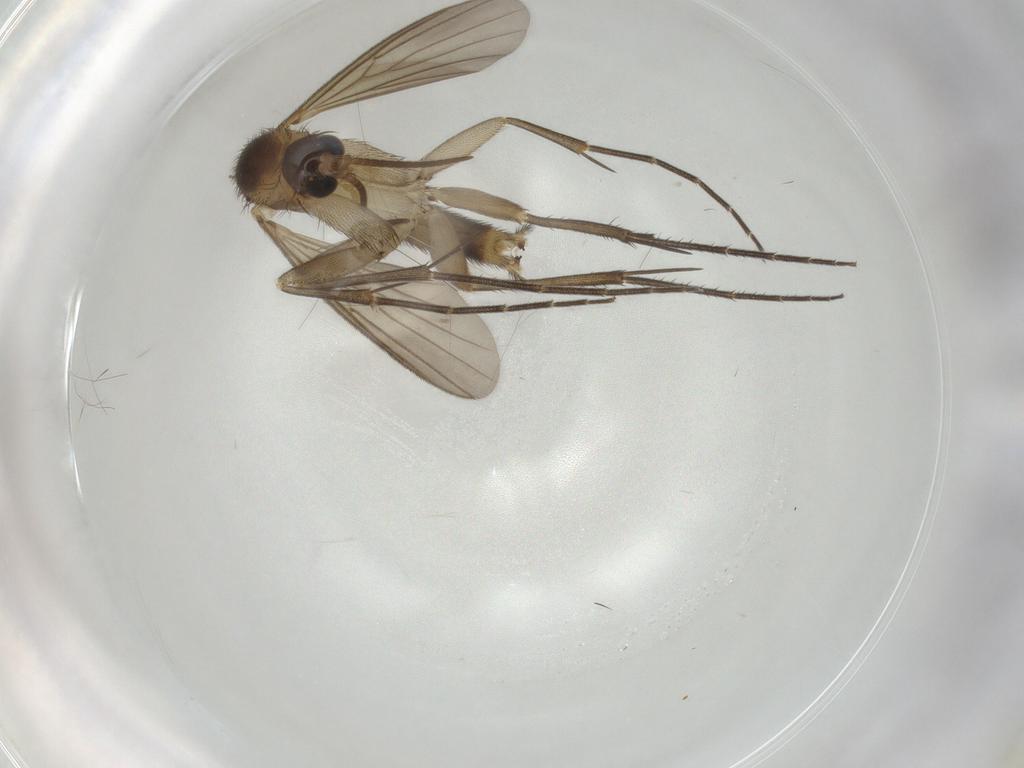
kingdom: Animalia
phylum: Arthropoda
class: Insecta
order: Diptera
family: Mycetophilidae
